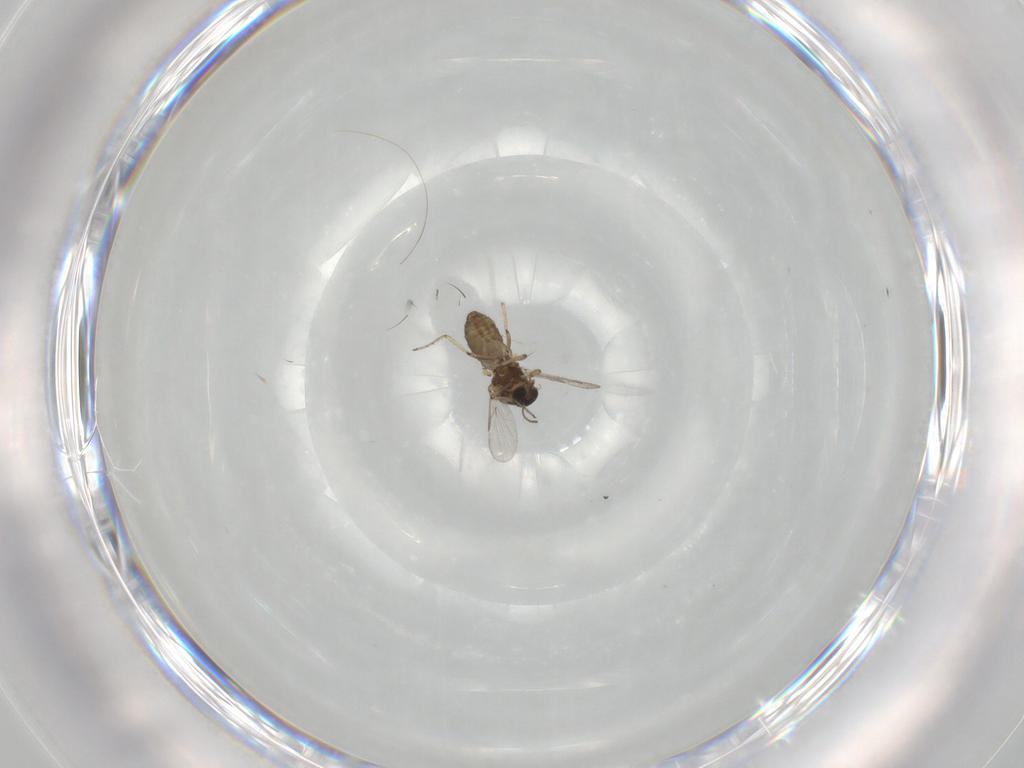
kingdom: Animalia
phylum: Arthropoda
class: Insecta
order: Diptera
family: Ceratopogonidae
